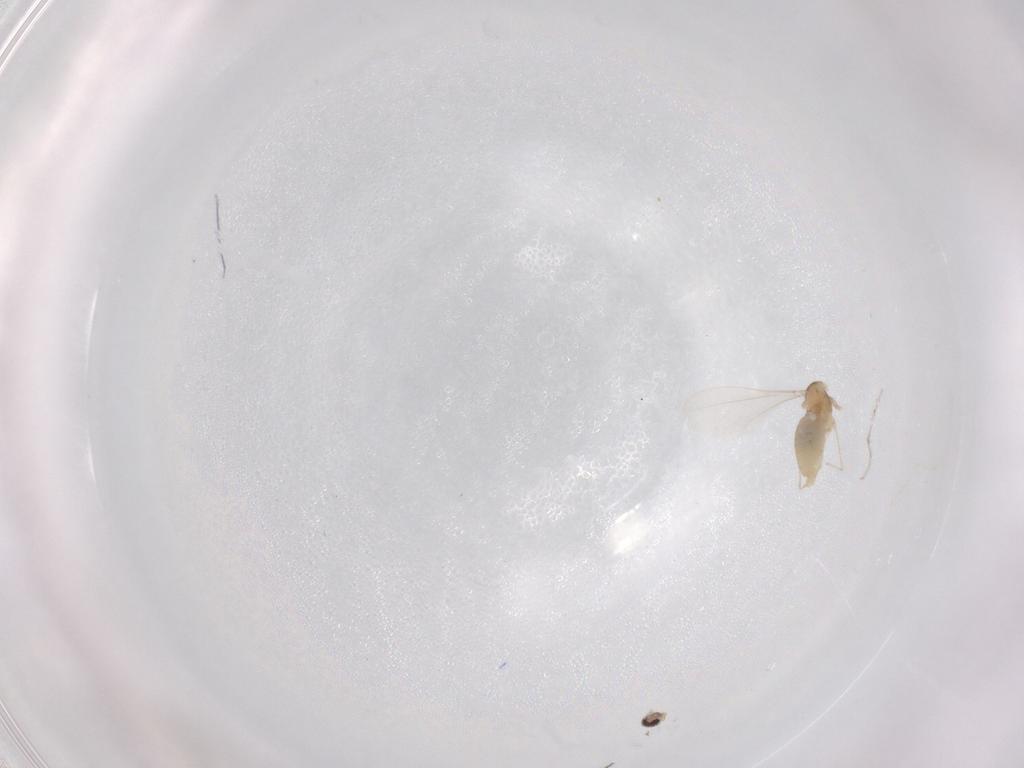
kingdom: Animalia
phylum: Arthropoda
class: Insecta
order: Diptera
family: Cecidomyiidae
